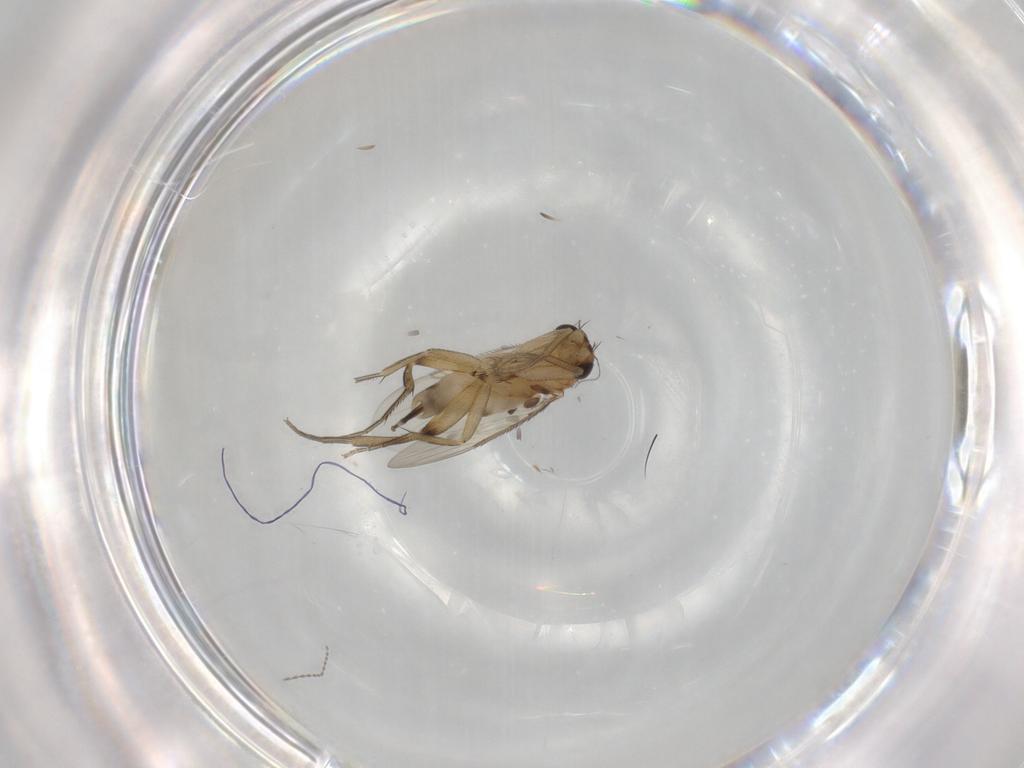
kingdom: Animalia
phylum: Arthropoda
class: Insecta
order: Diptera
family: Phoridae
